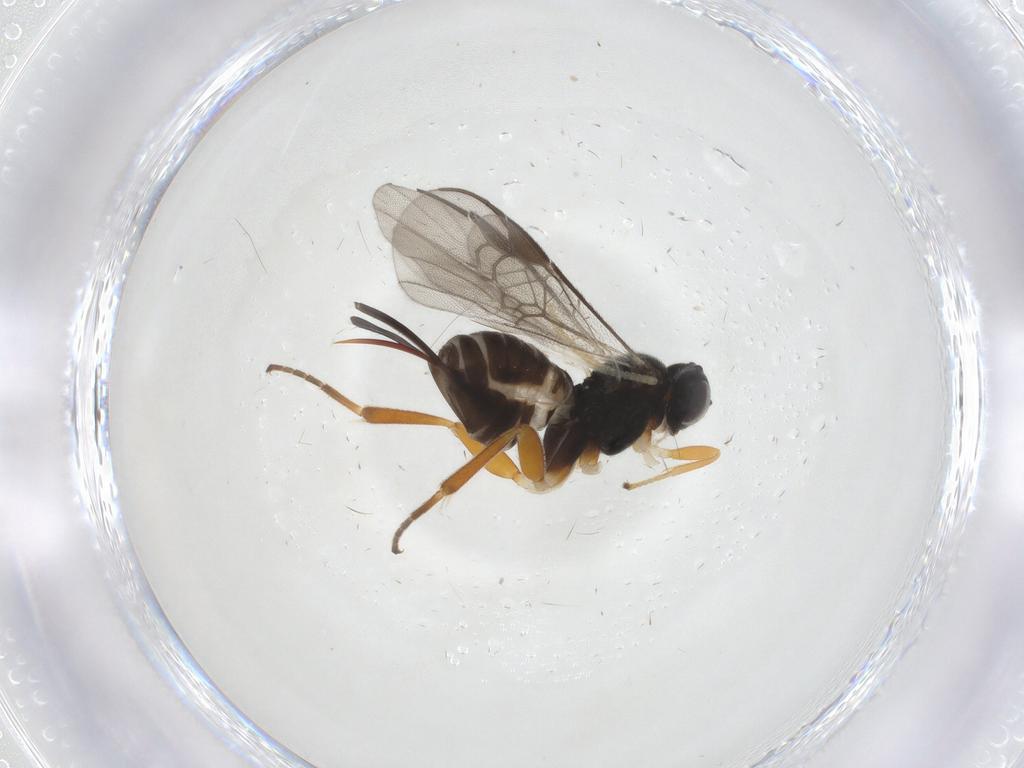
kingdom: Animalia
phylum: Arthropoda
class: Insecta
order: Hymenoptera
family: Braconidae
